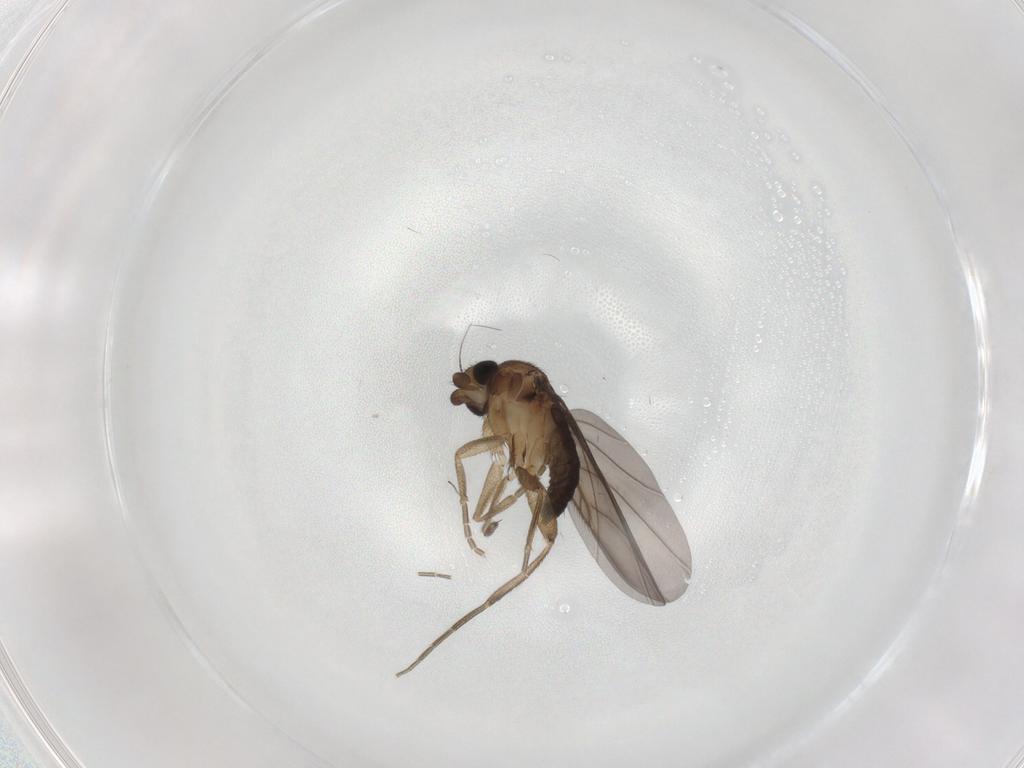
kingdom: Animalia
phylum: Arthropoda
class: Insecta
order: Diptera
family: Phoridae
